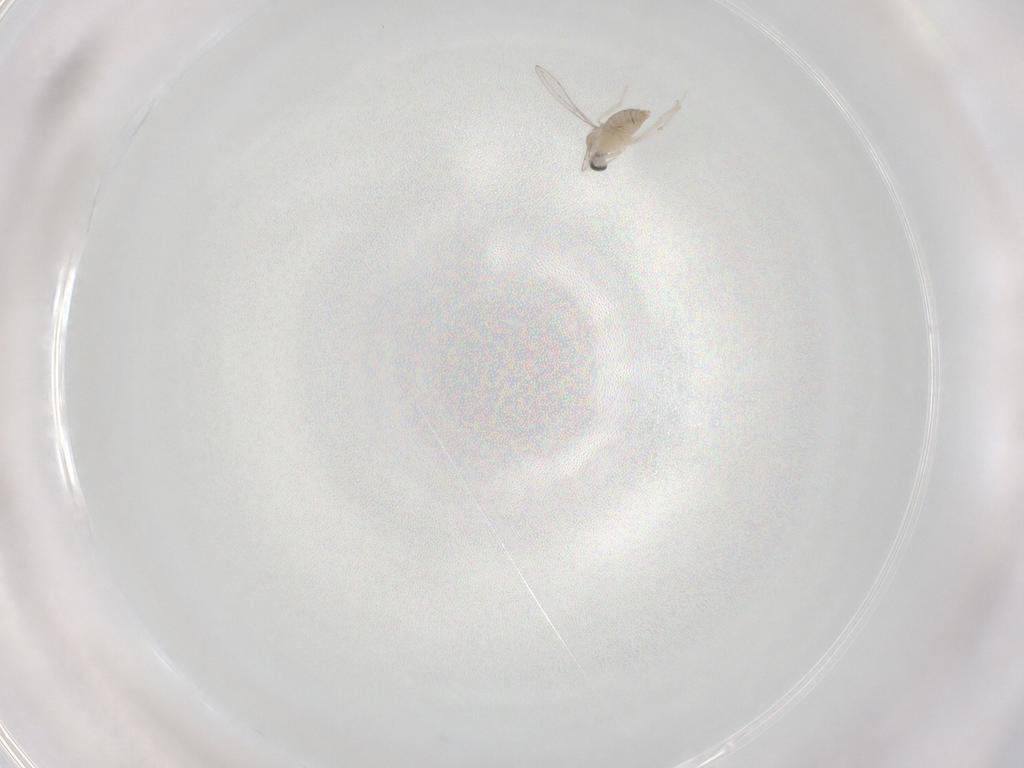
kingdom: Animalia
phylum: Arthropoda
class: Insecta
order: Diptera
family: Cecidomyiidae
